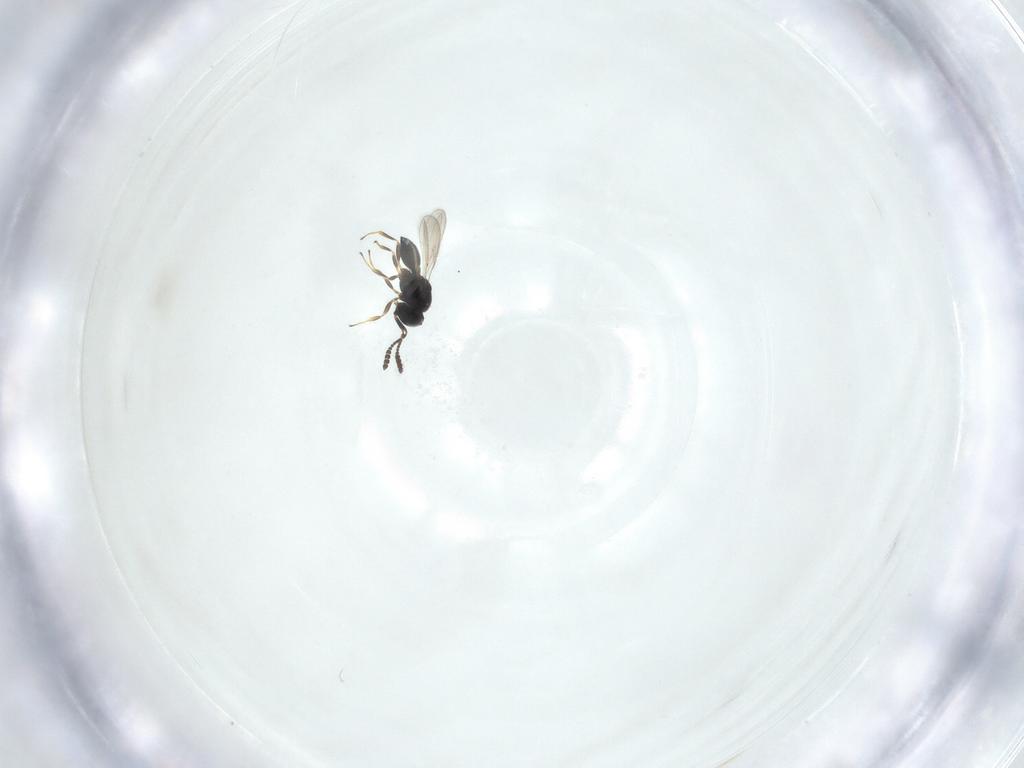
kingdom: Animalia
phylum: Arthropoda
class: Insecta
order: Hymenoptera
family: Scelionidae
